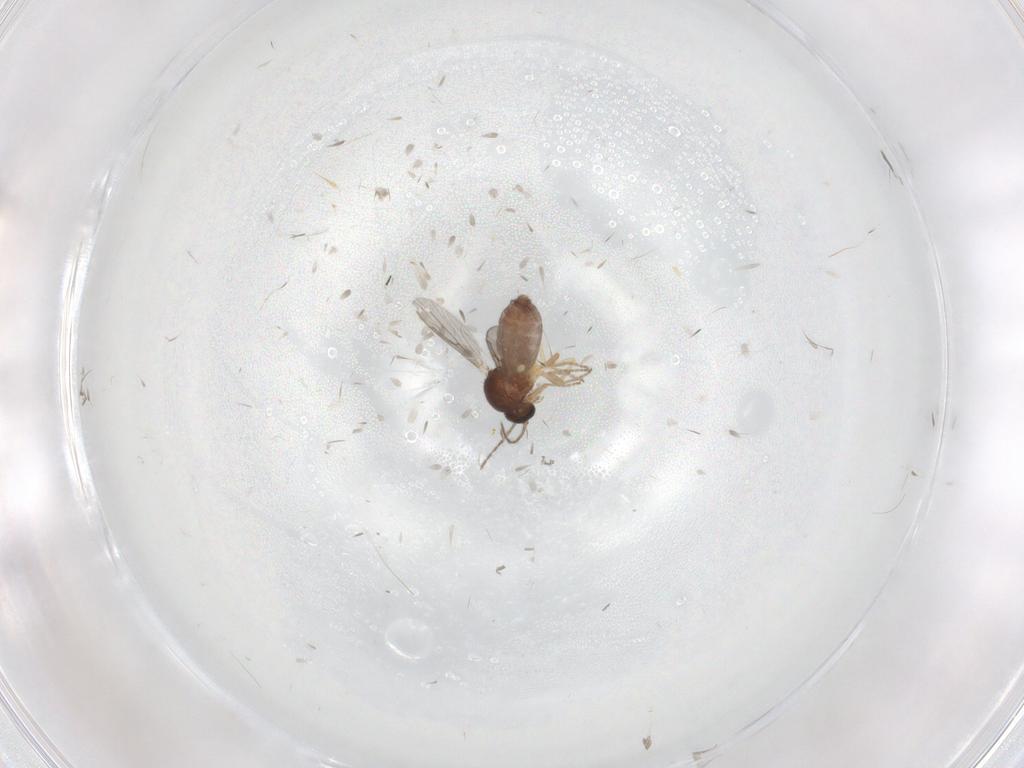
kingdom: Animalia
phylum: Arthropoda
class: Insecta
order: Diptera
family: Ceratopogonidae
